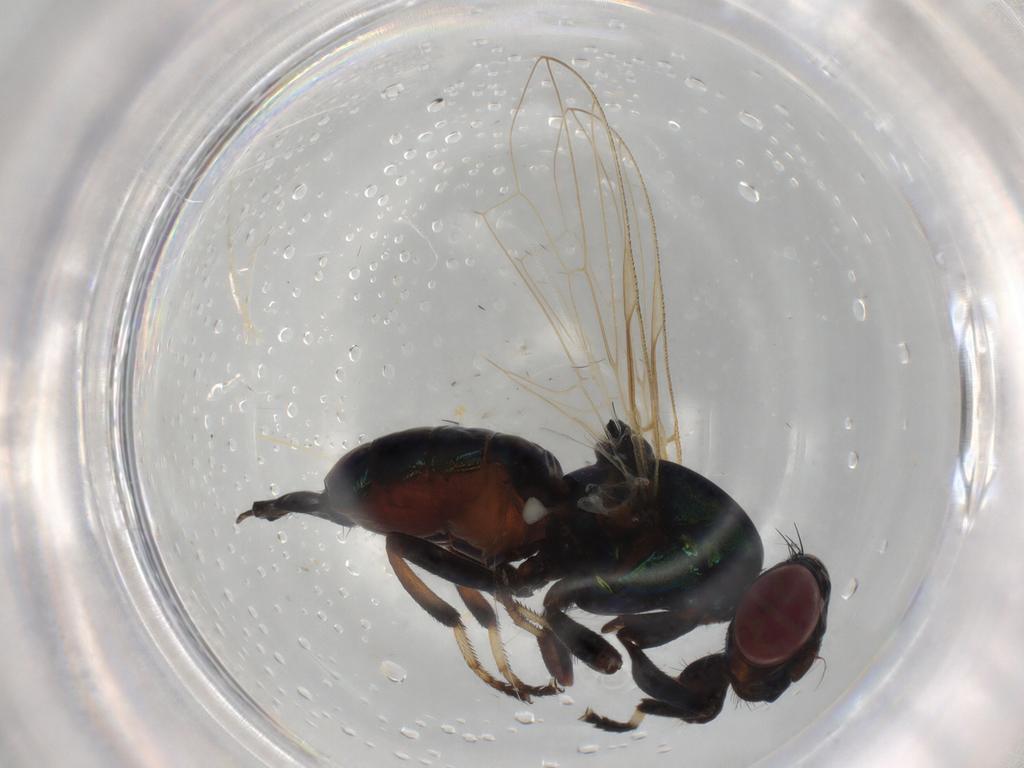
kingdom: Animalia
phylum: Arthropoda
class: Insecta
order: Diptera
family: Ulidiidae
